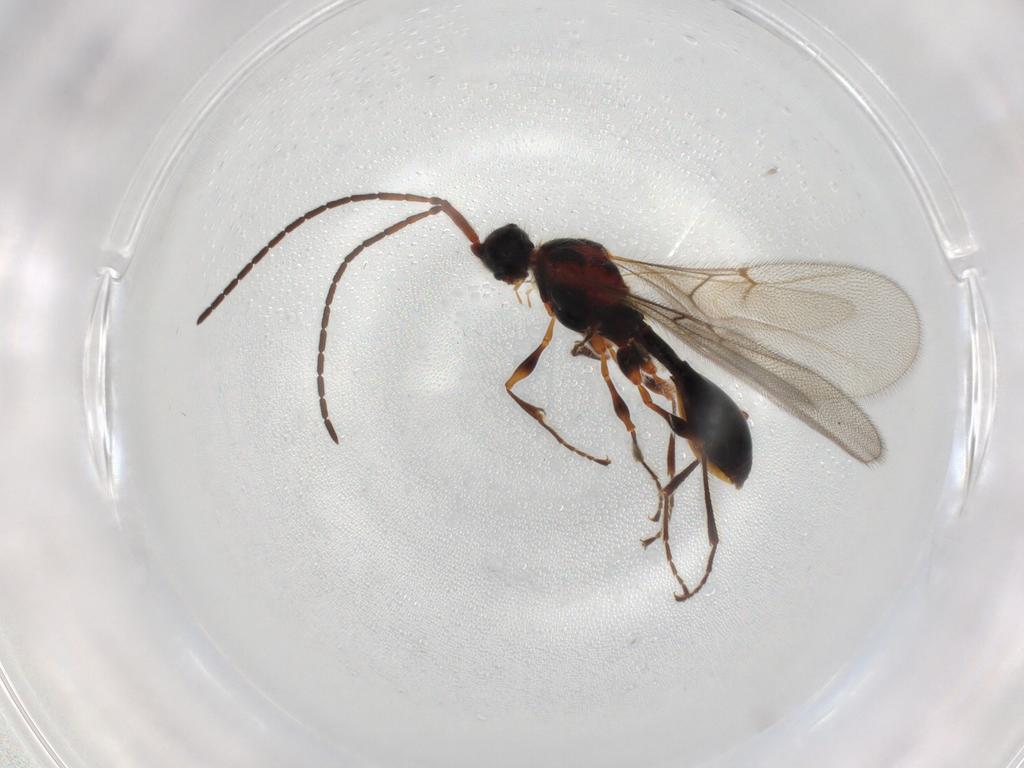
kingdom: Animalia
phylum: Arthropoda
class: Insecta
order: Hymenoptera
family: Diapriidae
